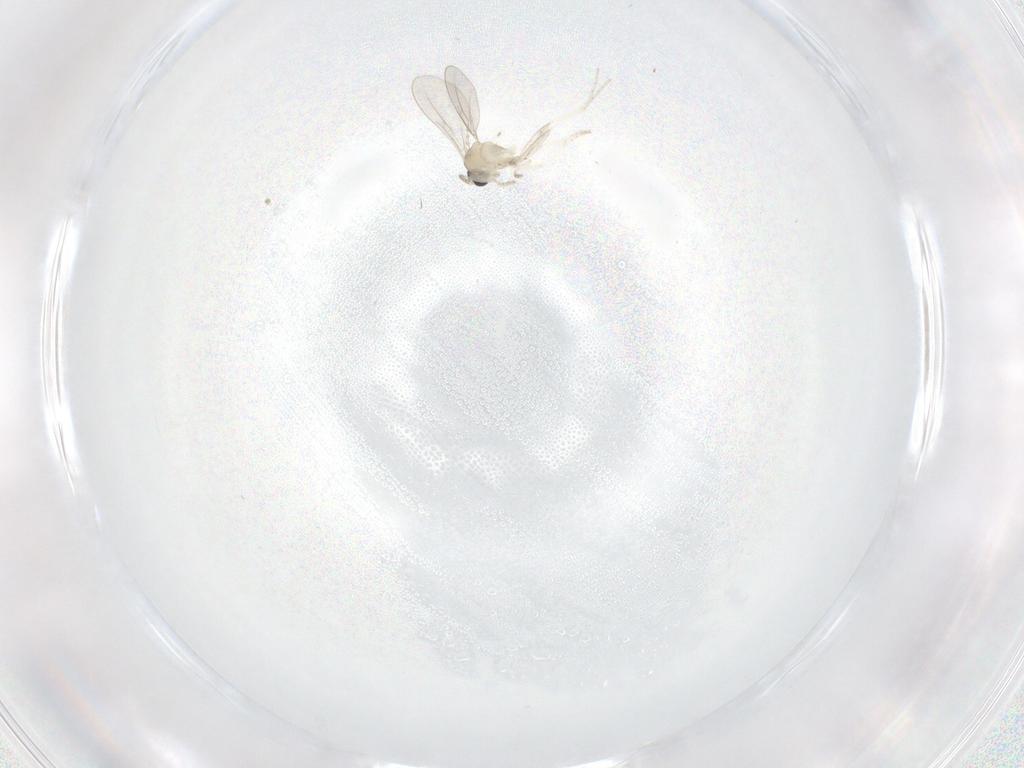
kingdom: Animalia
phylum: Arthropoda
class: Insecta
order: Diptera
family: Cecidomyiidae
